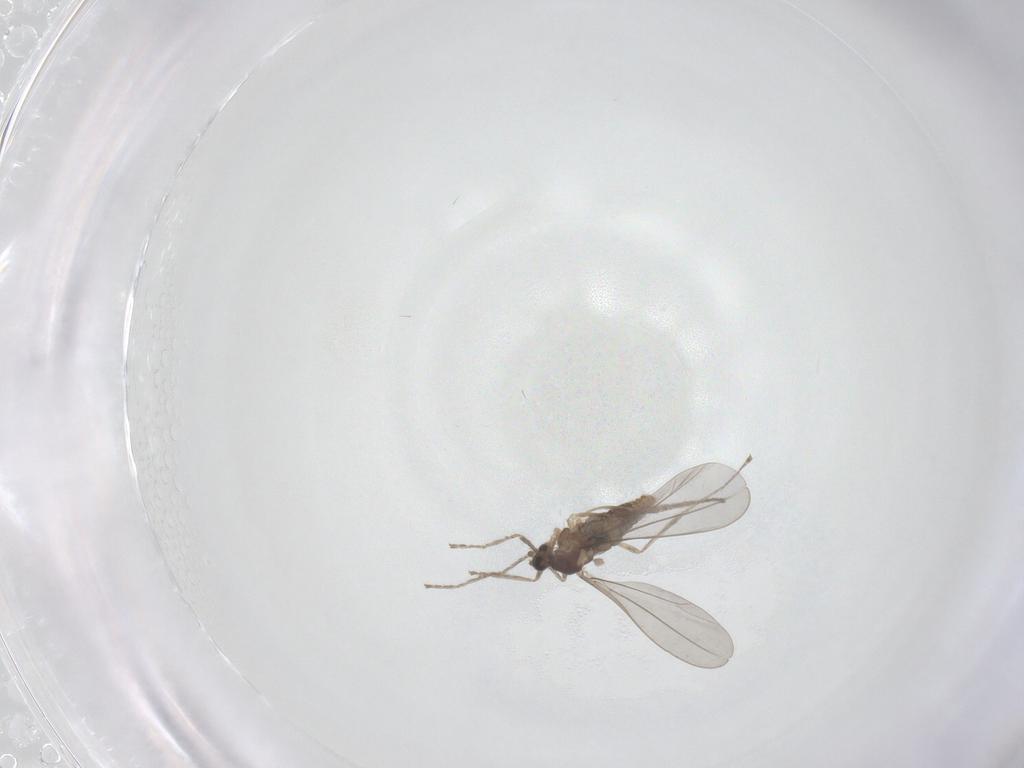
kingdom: Animalia
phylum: Arthropoda
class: Insecta
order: Diptera
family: Cecidomyiidae
